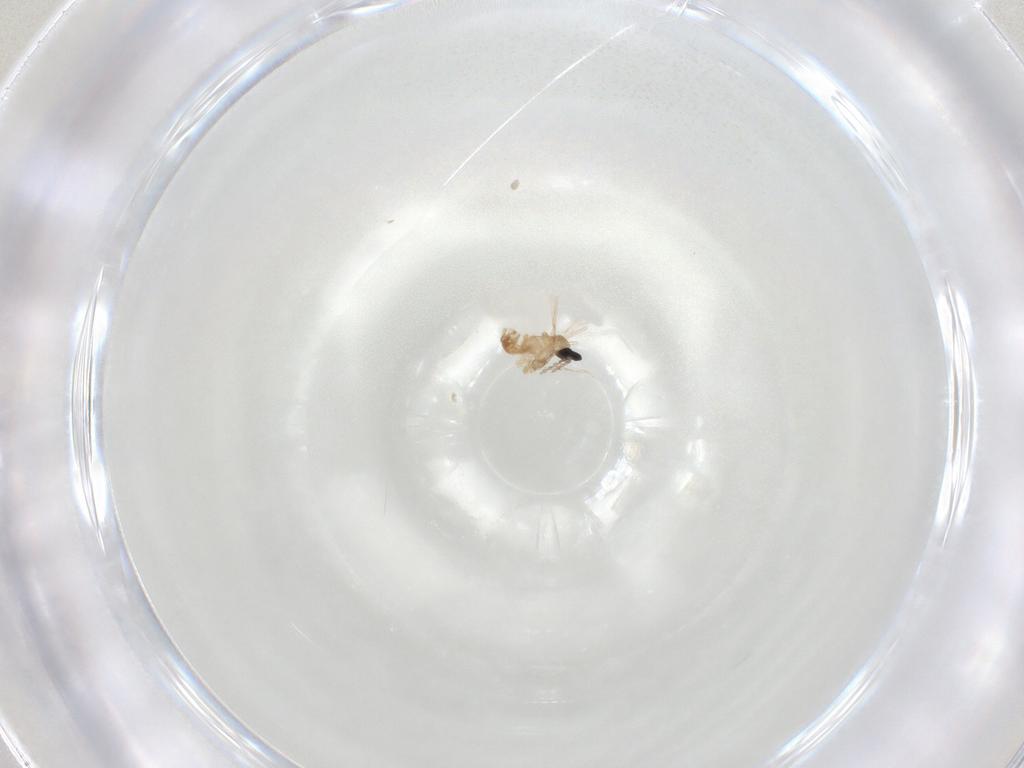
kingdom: Animalia
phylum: Arthropoda
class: Insecta
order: Diptera
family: Cecidomyiidae
